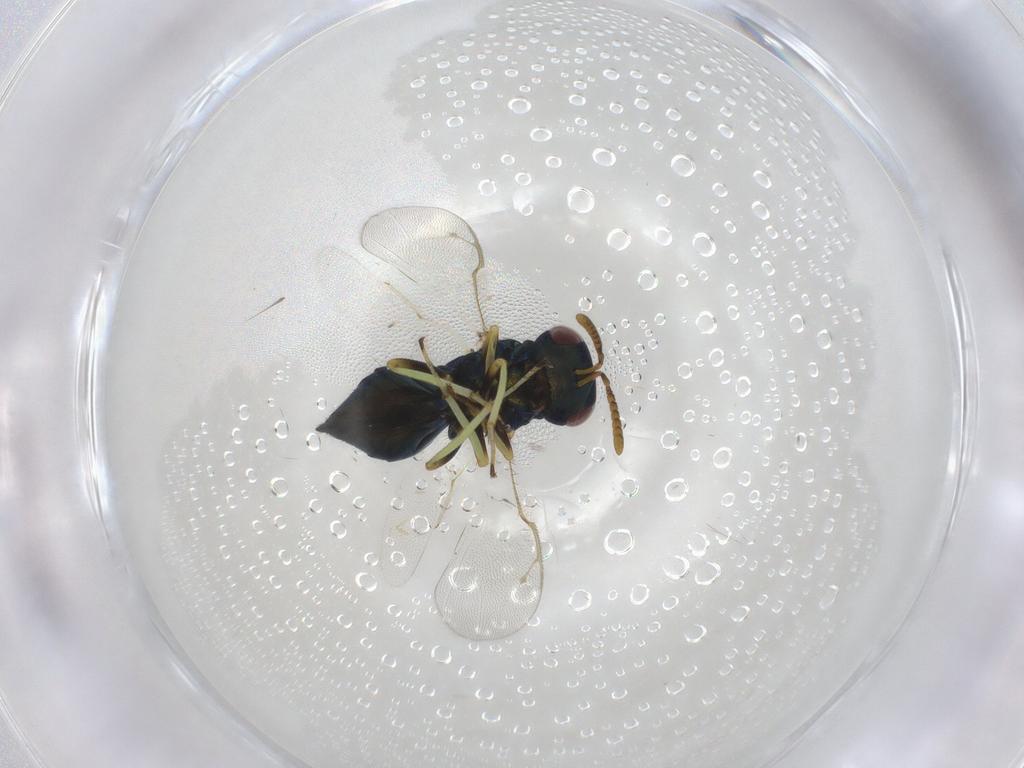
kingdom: Animalia
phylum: Arthropoda
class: Insecta
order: Hymenoptera
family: Pteromalidae
